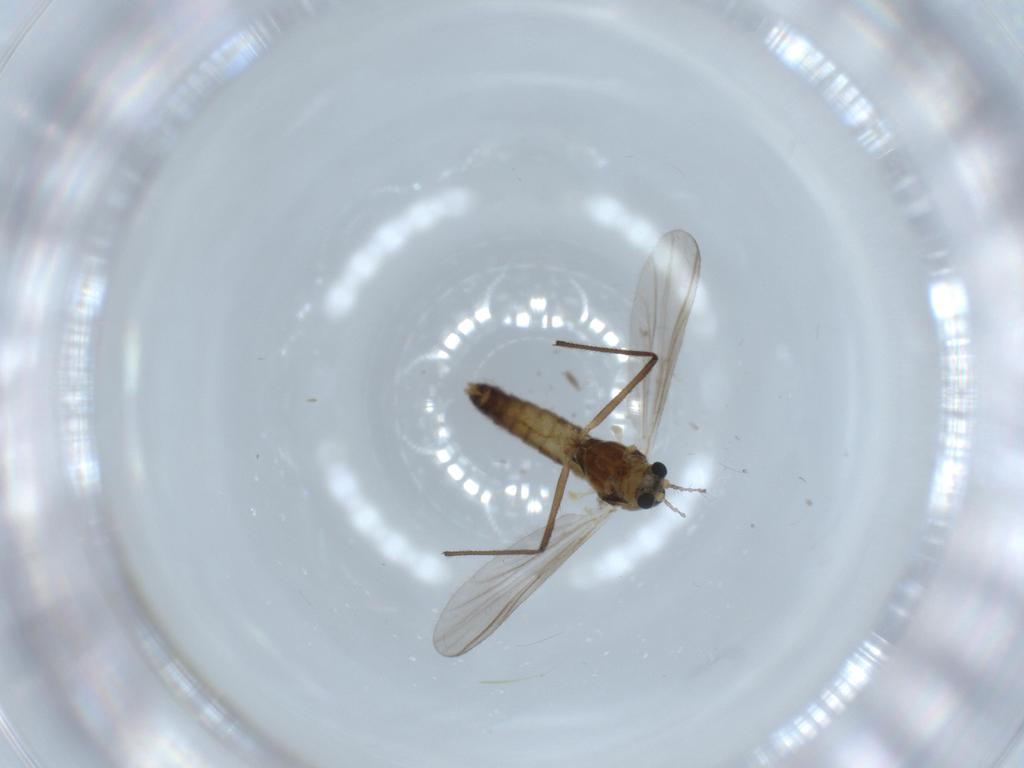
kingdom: Animalia
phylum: Arthropoda
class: Insecta
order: Diptera
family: Chironomidae
